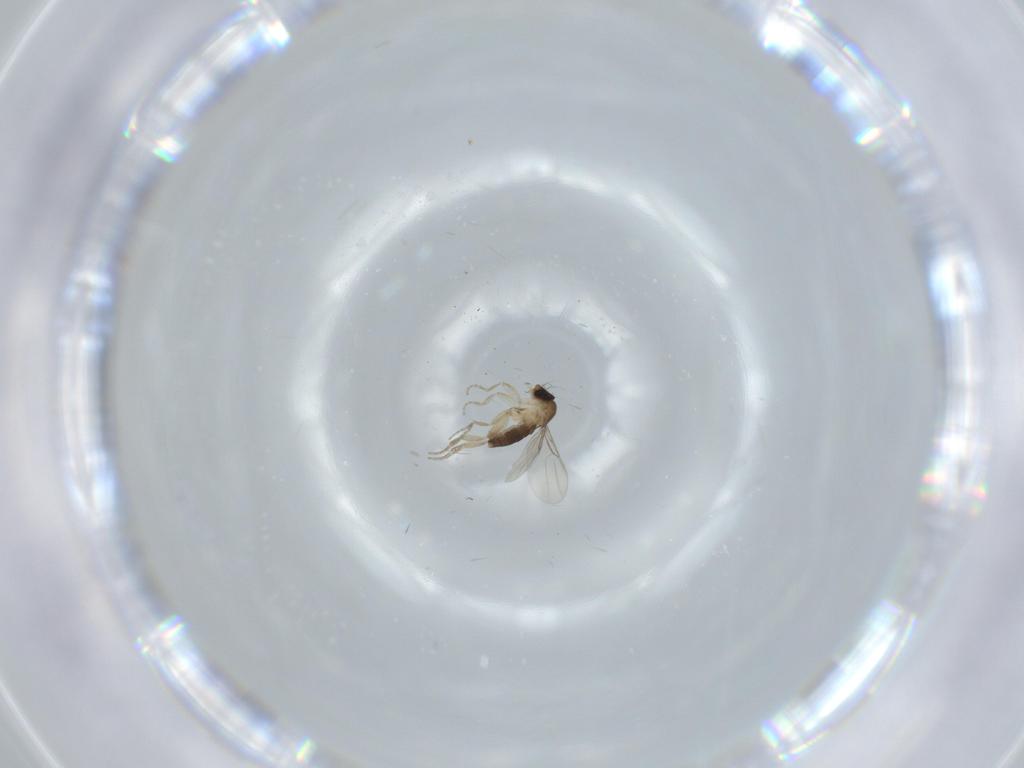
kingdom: Animalia
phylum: Arthropoda
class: Insecta
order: Diptera
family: Phoridae
